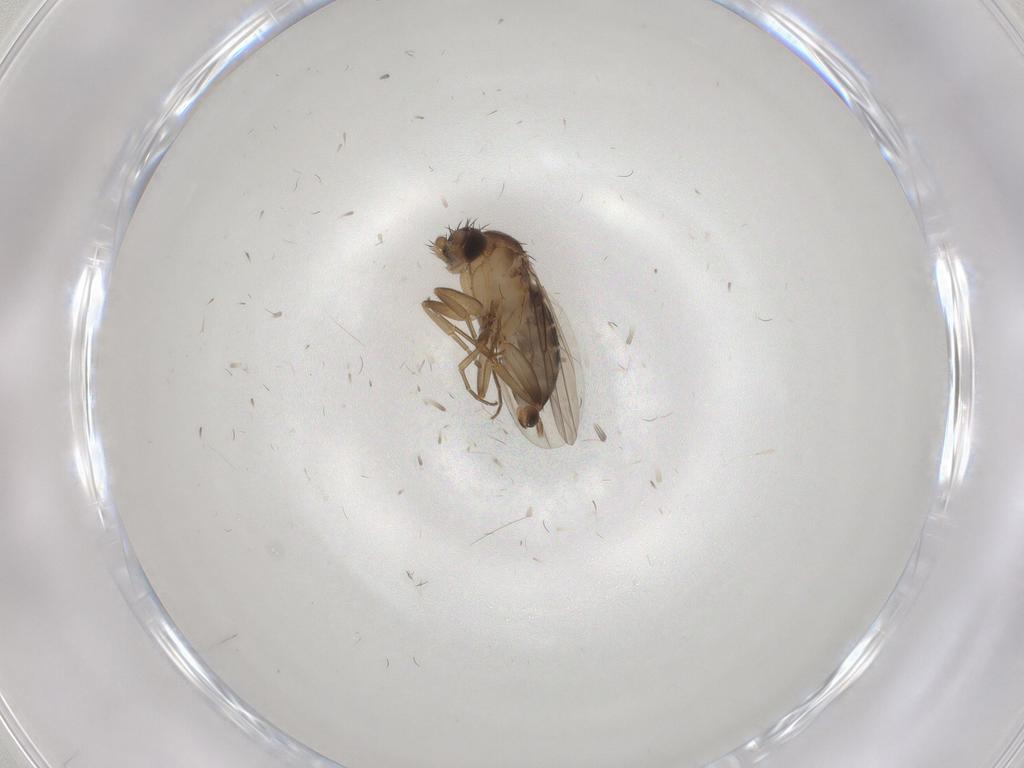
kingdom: Animalia
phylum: Arthropoda
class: Insecta
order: Diptera
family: Phoridae
